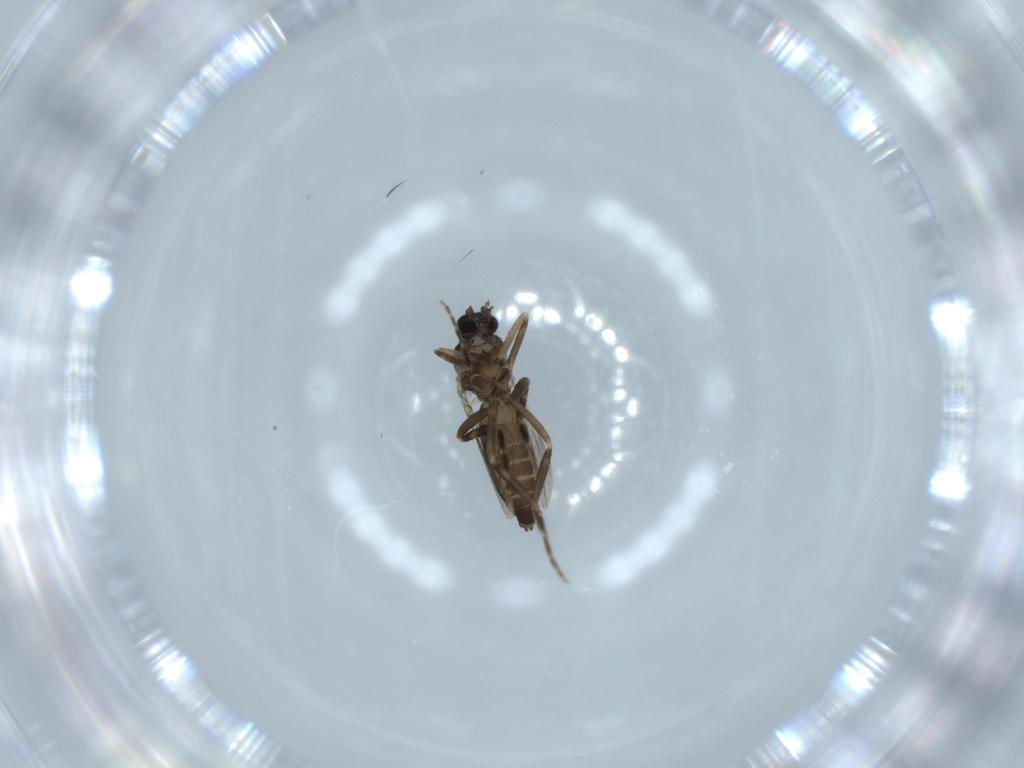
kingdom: Animalia
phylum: Arthropoda
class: Insecta
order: Diptera
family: Ceratopogonidae
